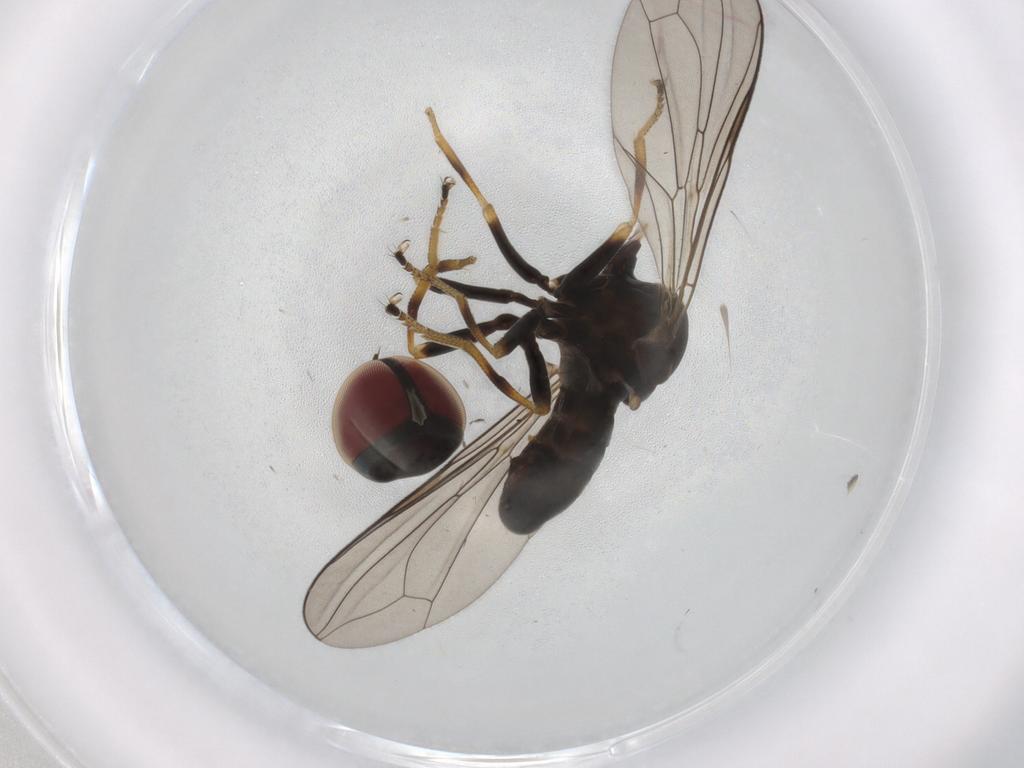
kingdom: Animalia
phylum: Arthropoda
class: Insecta
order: Diptera
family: Pipunculidae
